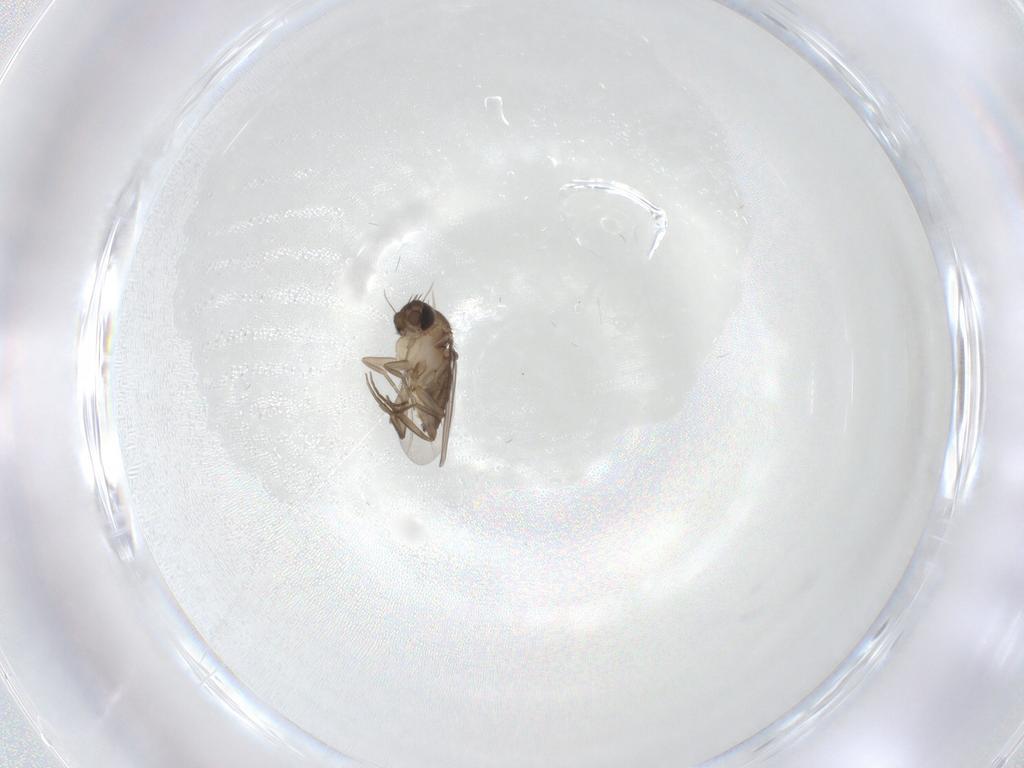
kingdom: Animalia
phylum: Arthropoda
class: Insecta
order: Diptera
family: Phoridae
